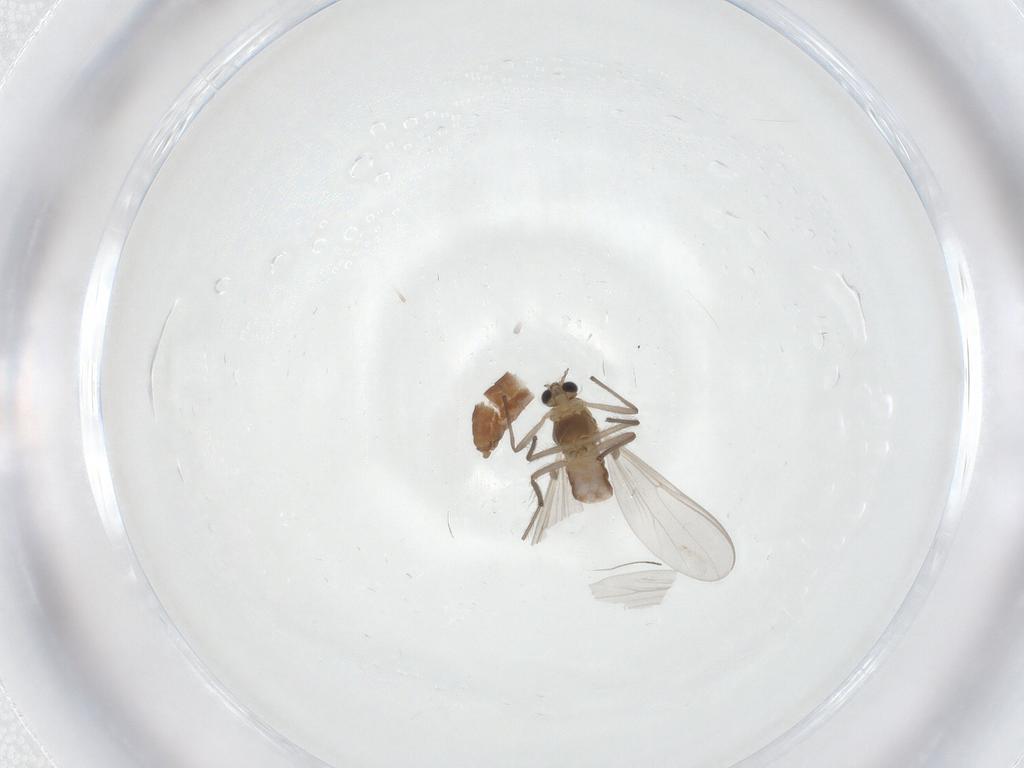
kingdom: Animalia
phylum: Arthropoda
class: Insecta
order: Diptera
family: Chironomidae
